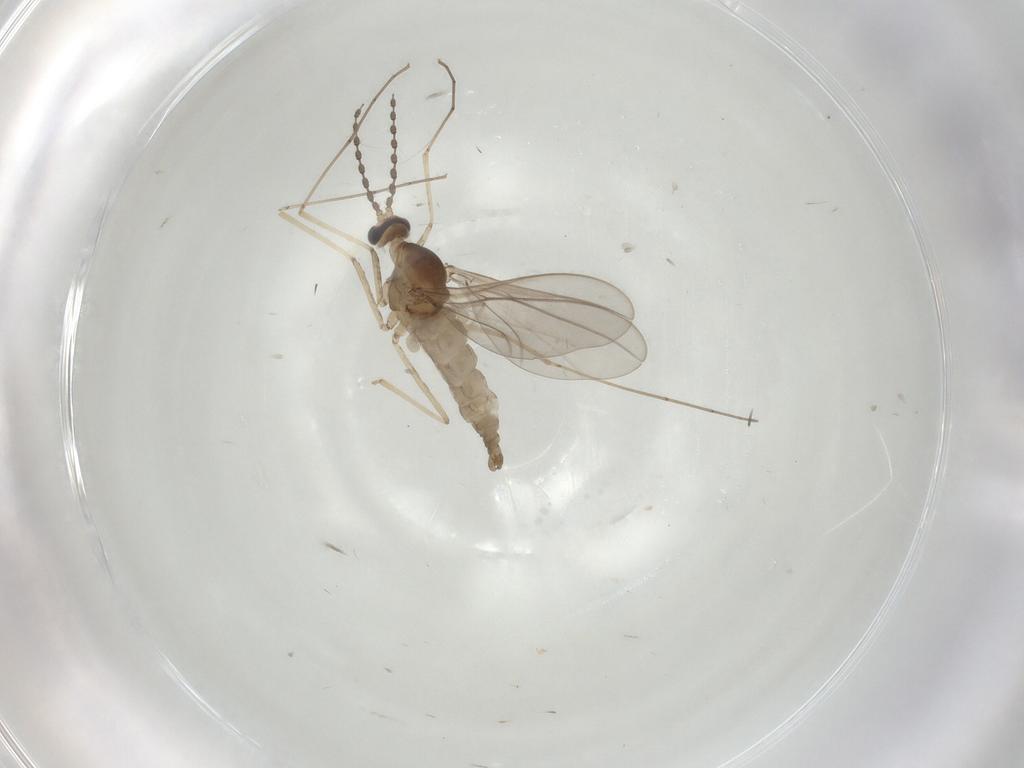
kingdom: Animalia
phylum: Arthropoda
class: Insecta
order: Diptera
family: Cecidomyiidae
